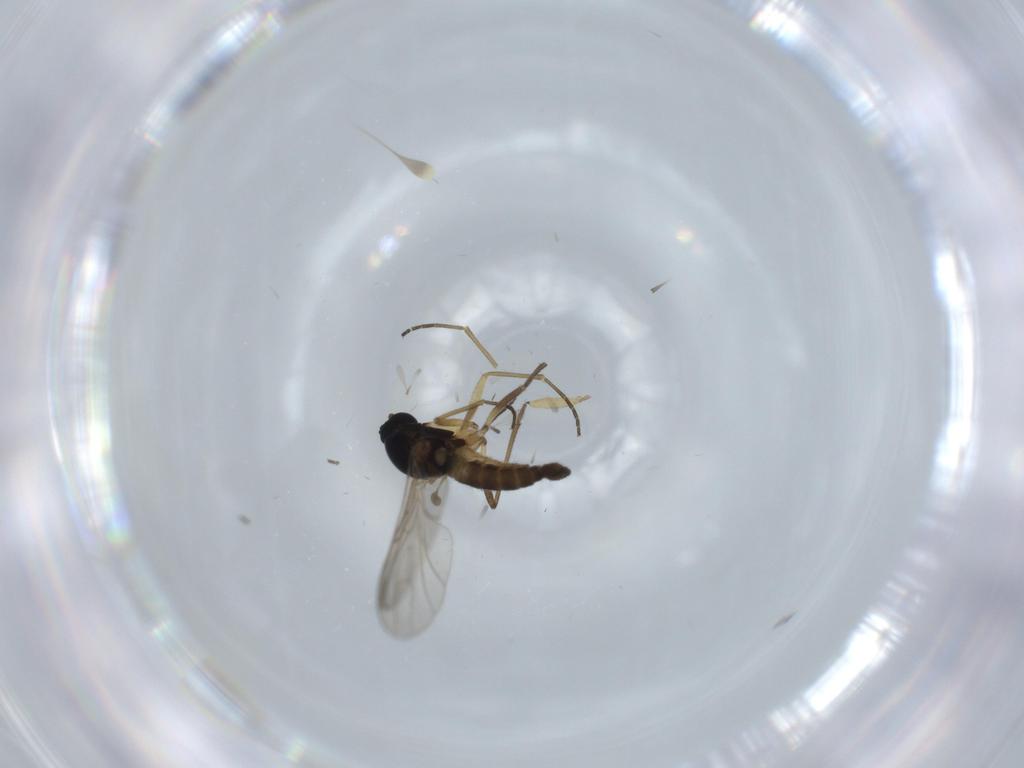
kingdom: Animalia
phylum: Arthropoda
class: Insecta
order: Diptera
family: Sciaridae
